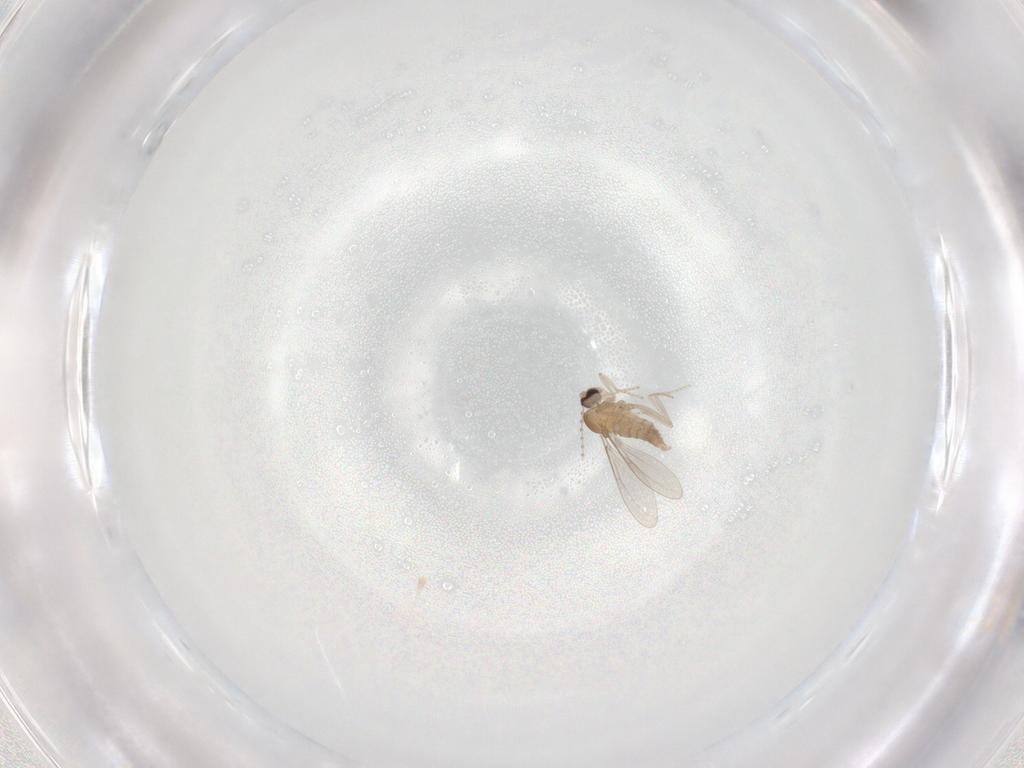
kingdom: Animalia
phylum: Arthropoda
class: Insecta
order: Diptera
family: Cecidomyiidae
